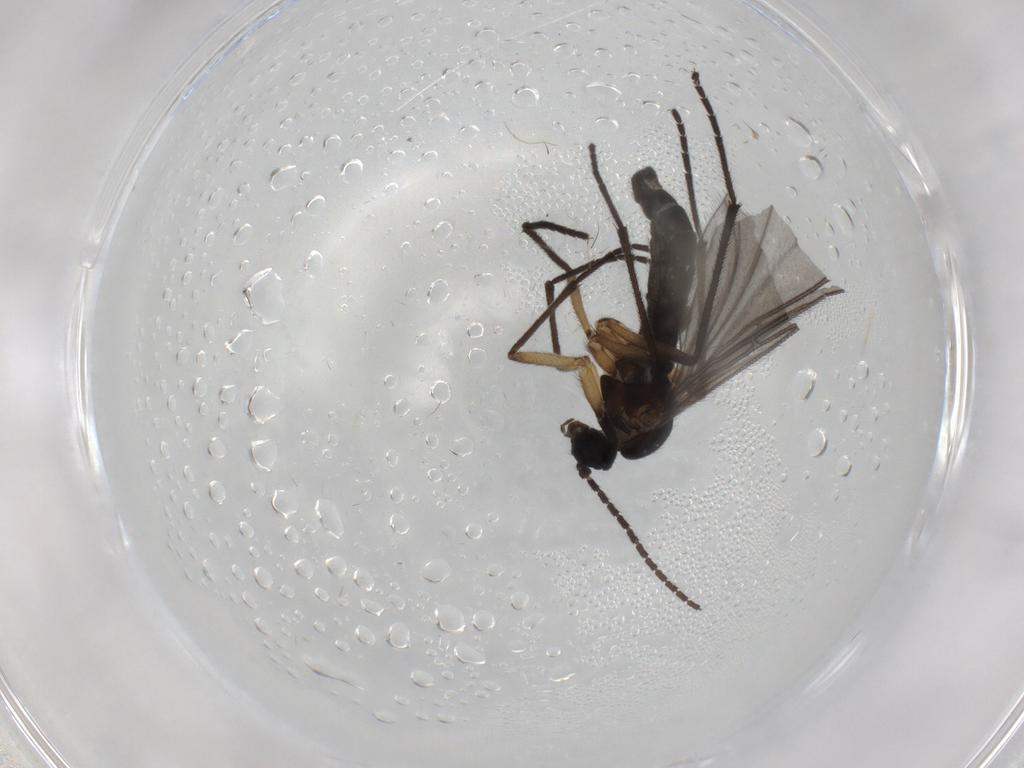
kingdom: Animalia
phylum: Arthropoda
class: Insecta
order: Diptera
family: Sciaridae
